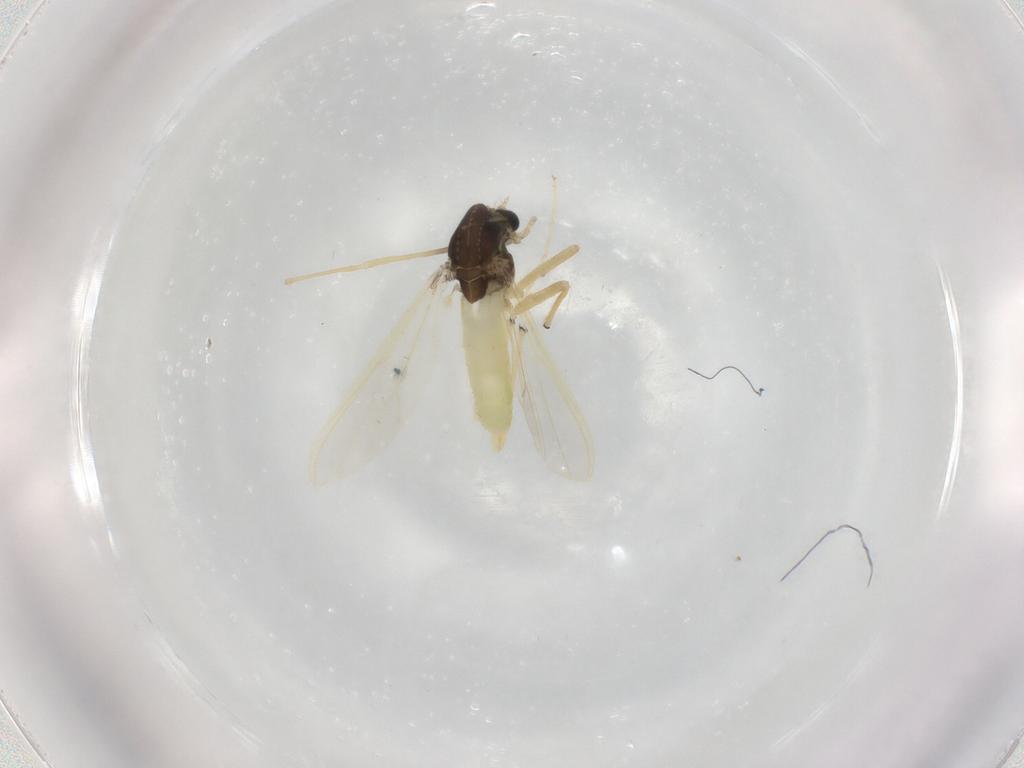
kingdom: Animalia
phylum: Arthropoda
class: Insecta
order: Diptera
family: Chironomidae
